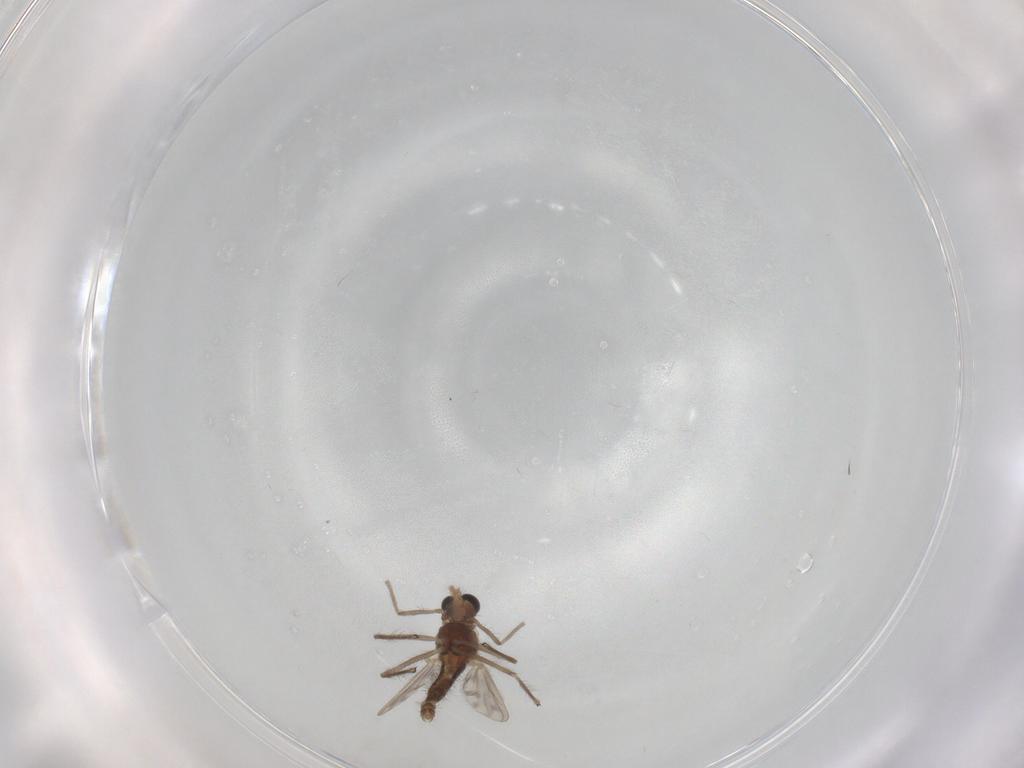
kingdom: Animalia
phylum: Arthropoda
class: Insecta
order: Diptera
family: Chironomidae
